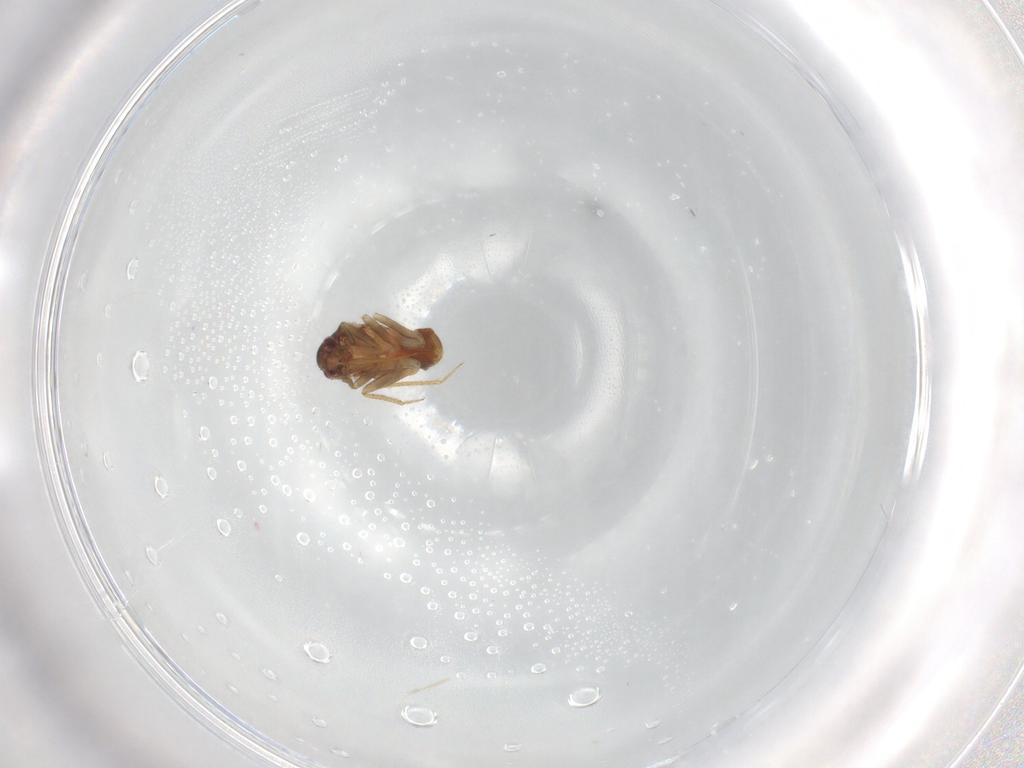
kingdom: Animalia
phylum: Arthropoda
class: Insecta
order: Hemiptera
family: Ceratocombidae
